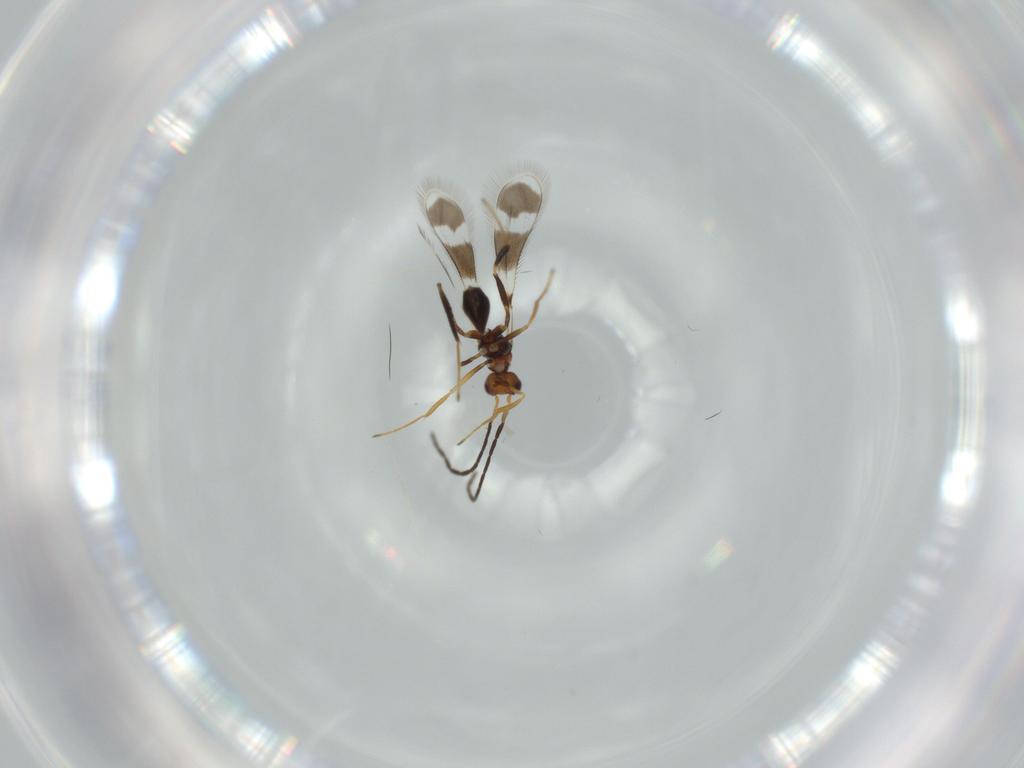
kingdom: Animalia
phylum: Arthropoda
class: Insecta
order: Hymenoptera
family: Mymaridae
